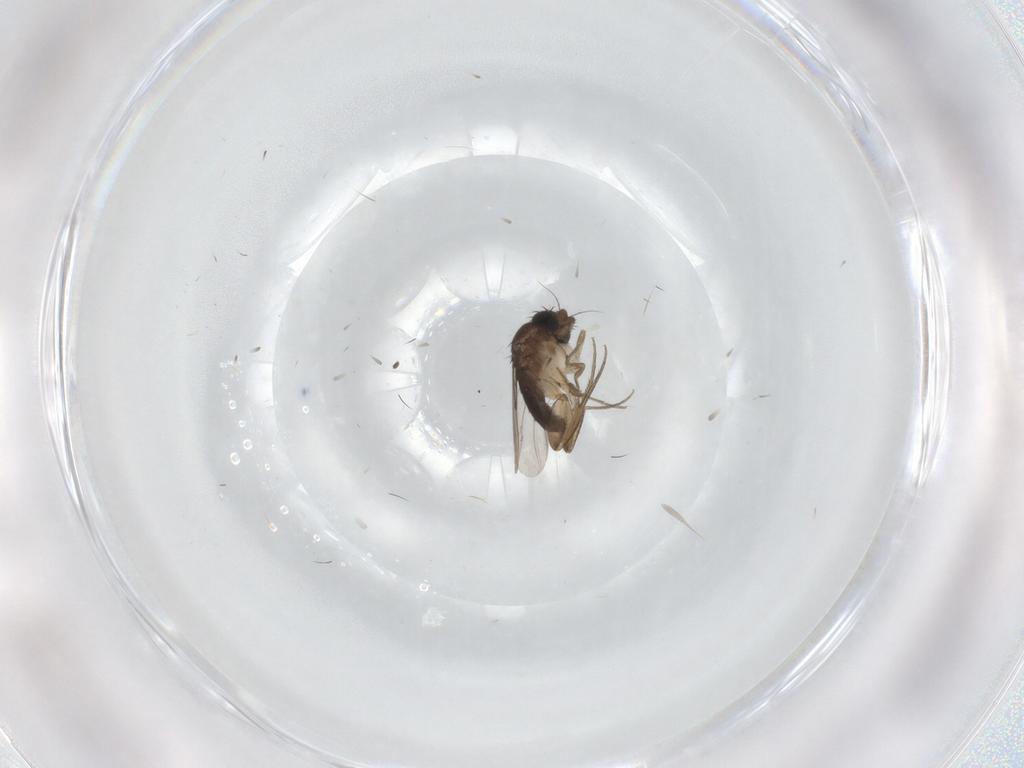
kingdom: Animalia
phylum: Arthropoda
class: Insecta
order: Diptera
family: Phoridae
